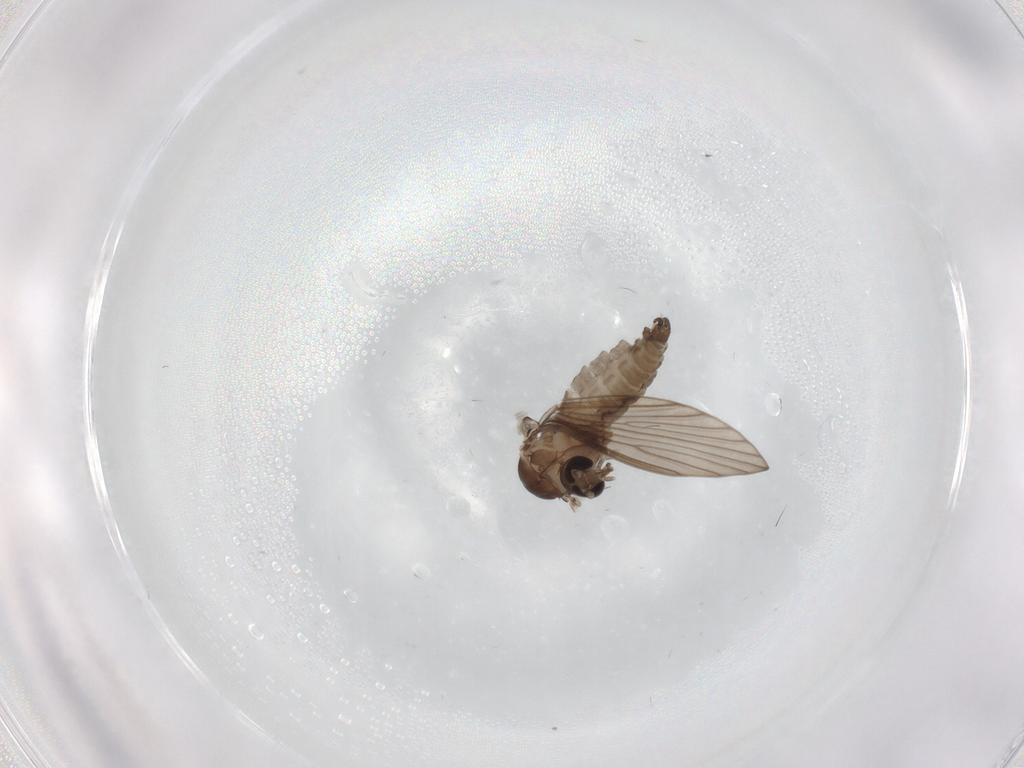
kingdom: Animalia
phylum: Arthropoda
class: Insecta
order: Diptera
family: Psychodidae
